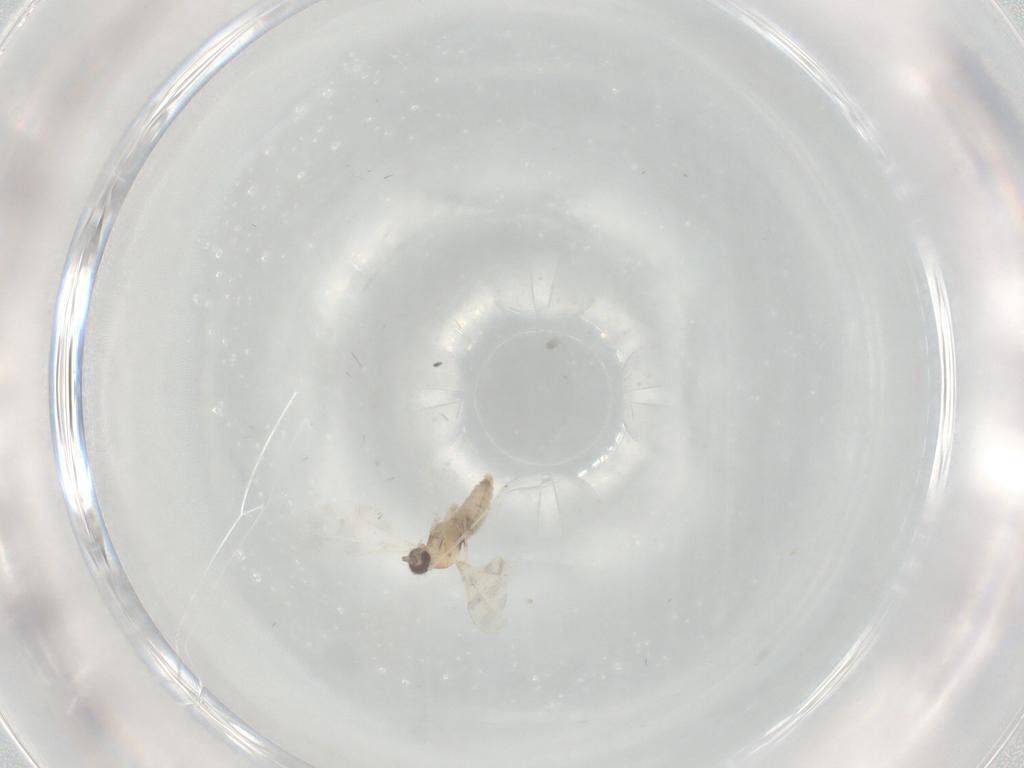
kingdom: Animalia
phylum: Arthropoda
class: Insecta
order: Diptera
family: Cecidomyiidae
